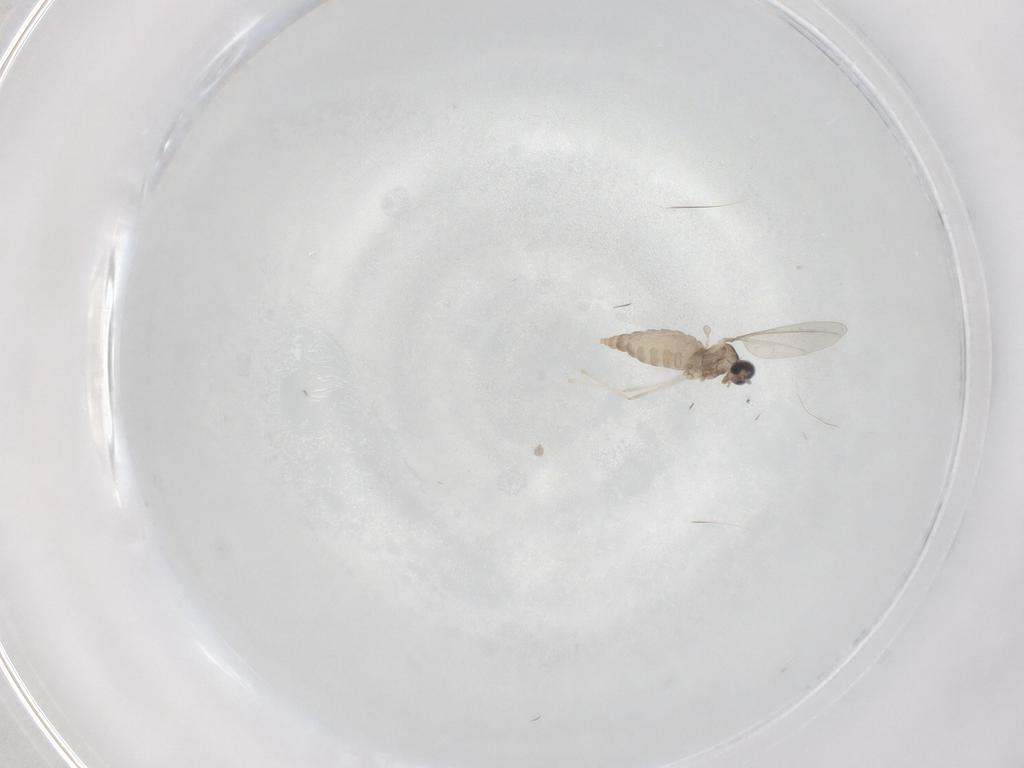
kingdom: Animalia
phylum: Arthropoda
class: Insecta
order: Diptera
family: Cecidomyiidae
